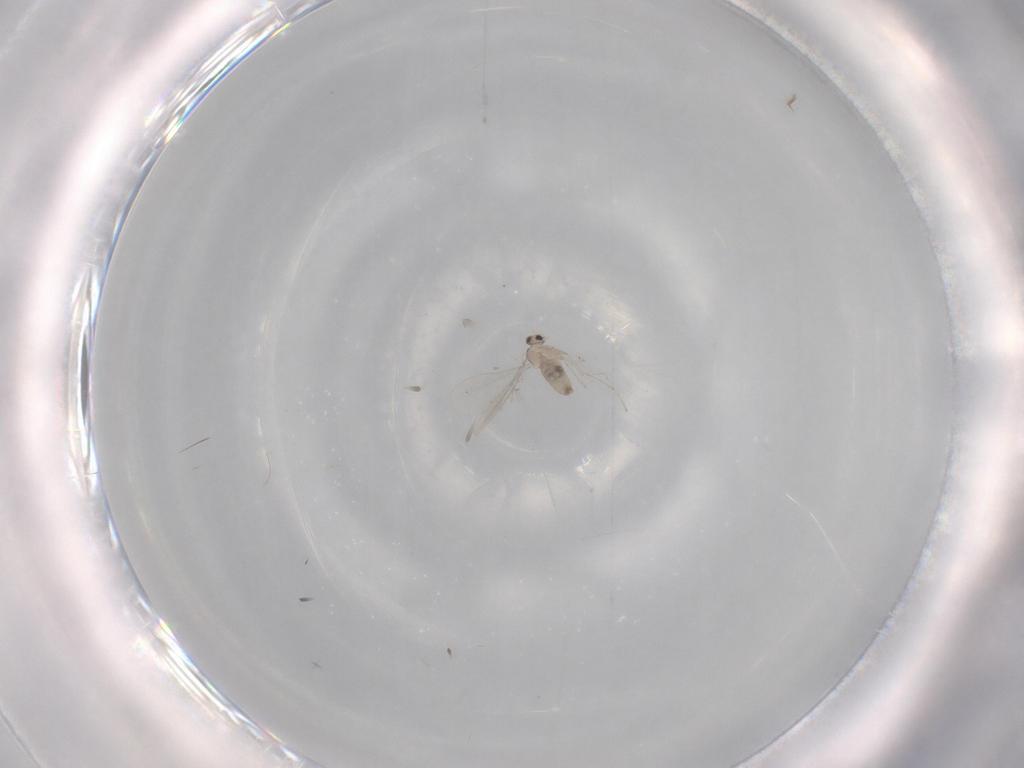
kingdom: Animalia
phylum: Arthropoda
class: Insecta
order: Diptera
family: Cecidomyiidae
